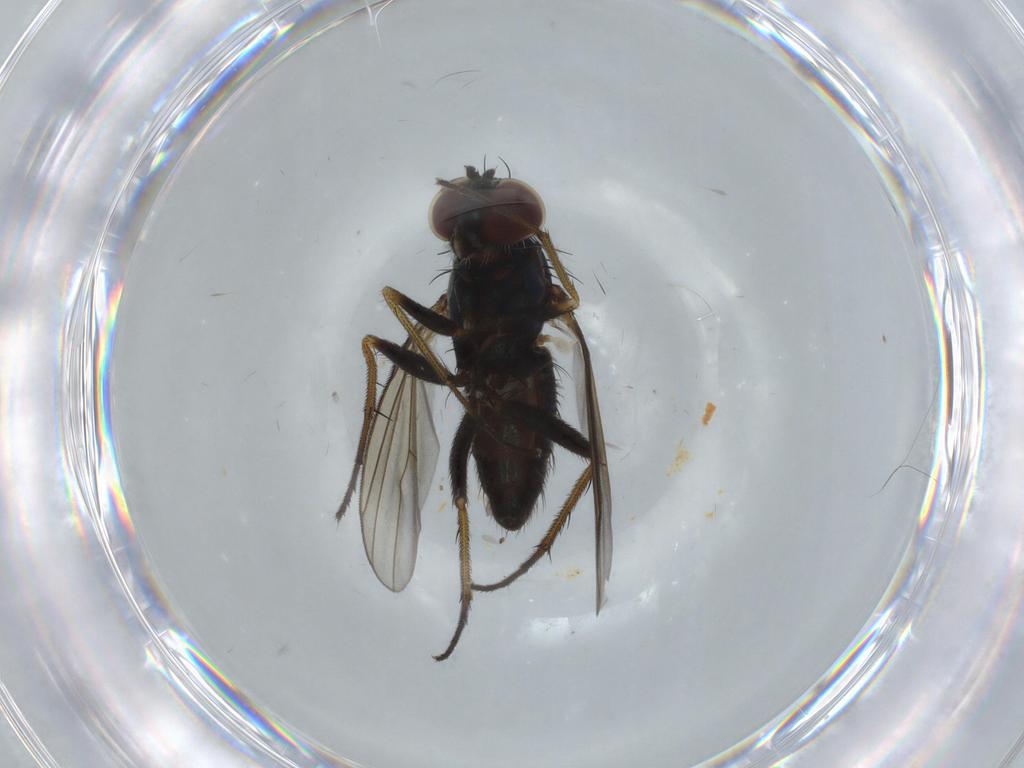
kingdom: Animalia
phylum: Arthropoda
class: Insecta
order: Diptera
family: Dolichopodidae
